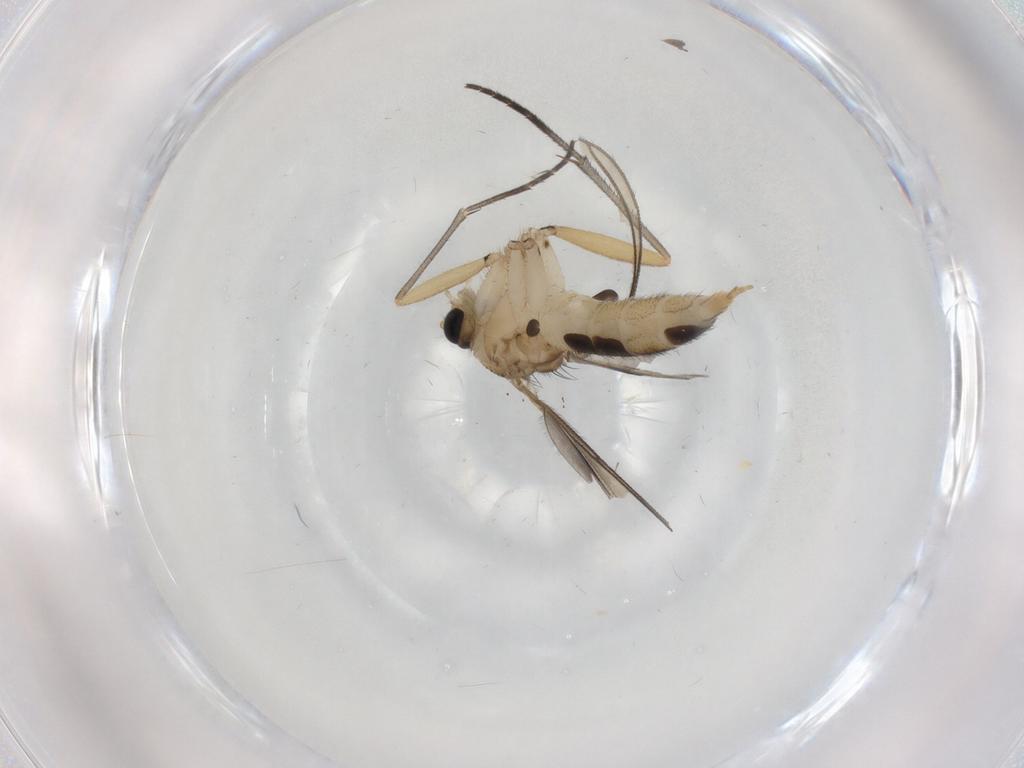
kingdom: Animalia
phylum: Arthropoda
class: Insecta
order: Diptera
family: Sciaridae
